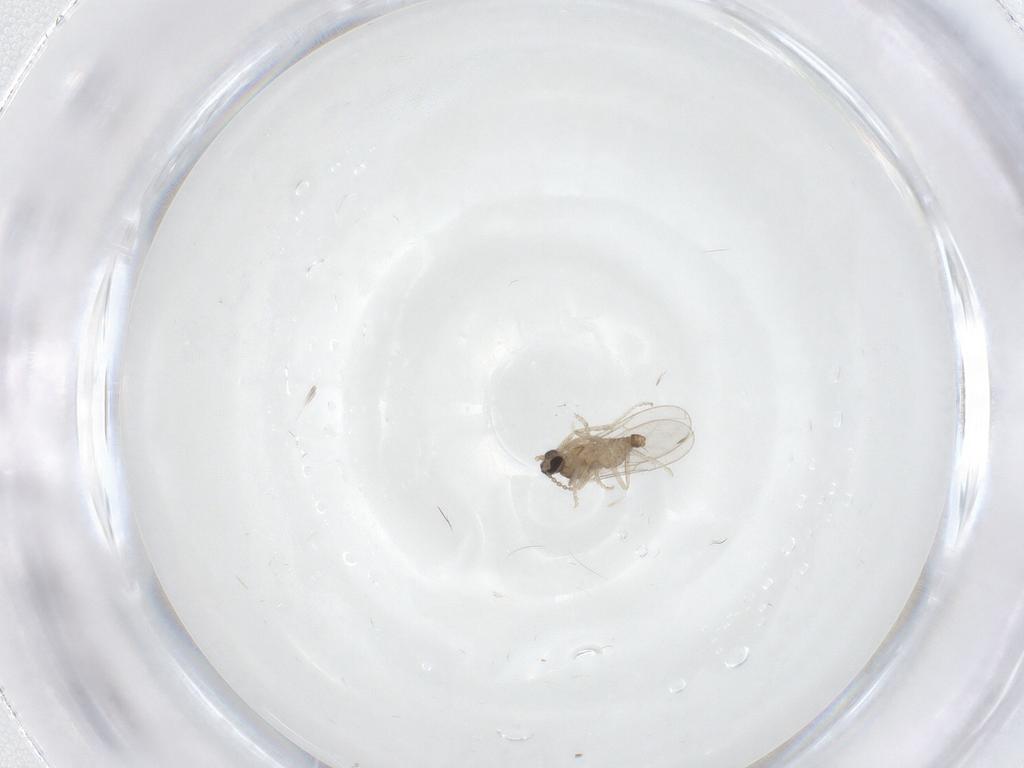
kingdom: Animalia
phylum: Arthropoda
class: Insecta
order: Diptera
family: Cecidomyiidae
